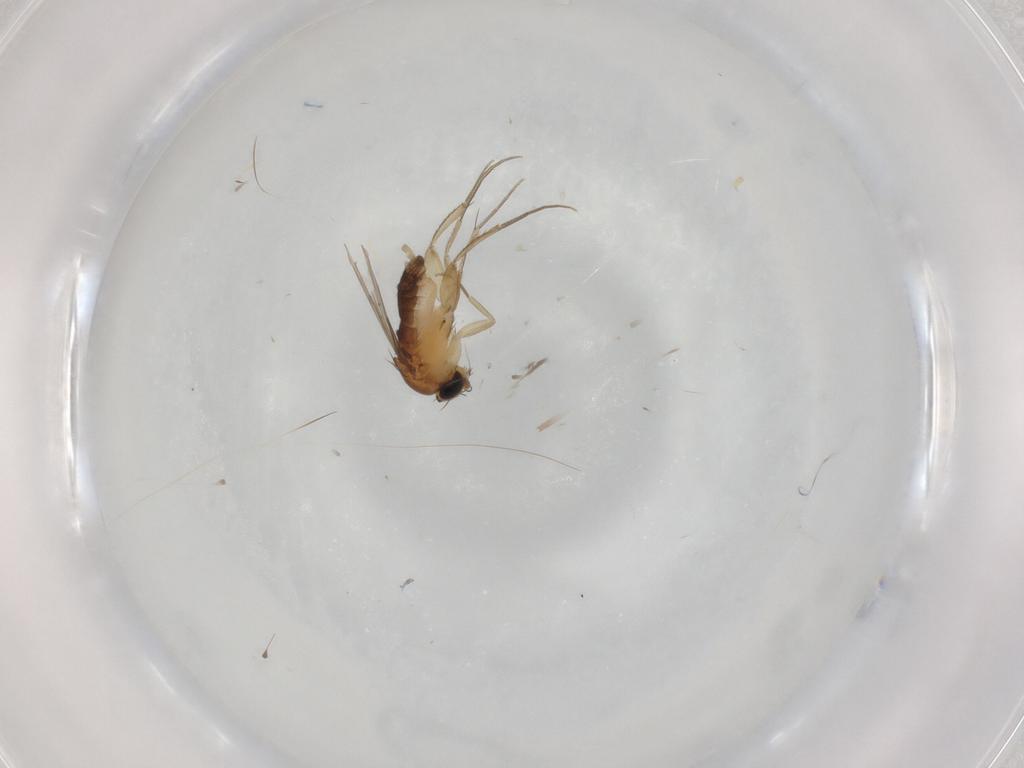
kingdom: Animalia
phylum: Arthropoda
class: Insecta
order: Diptera
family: Phoridae
